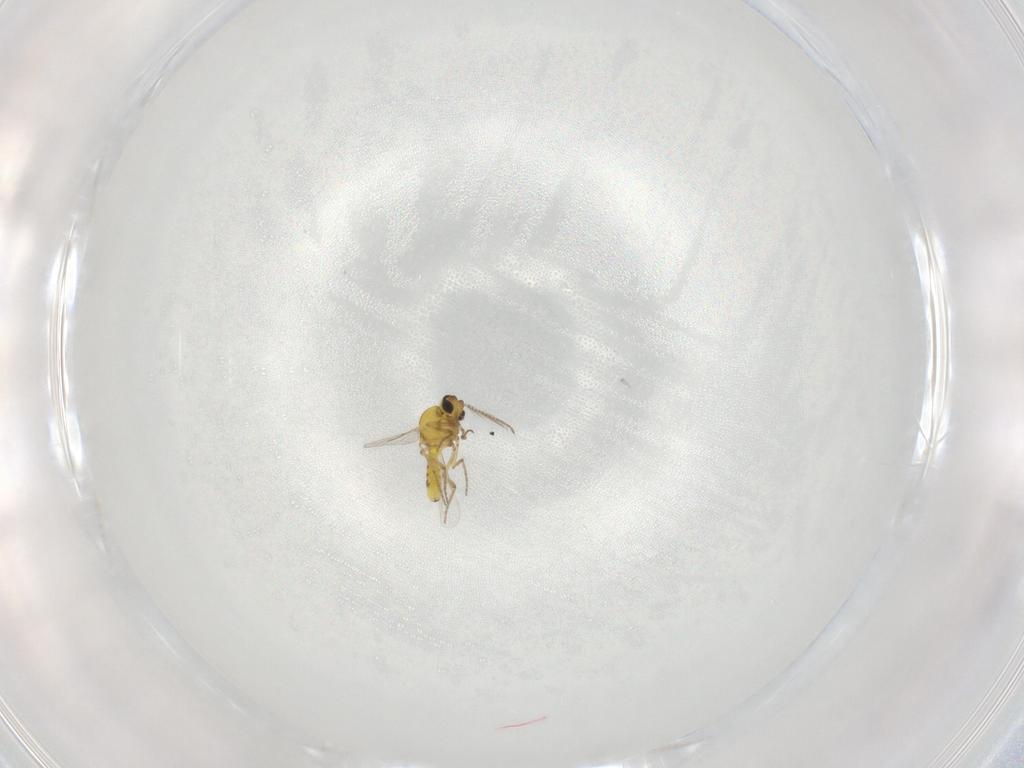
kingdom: Animalia
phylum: Arthropoda
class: Insecta
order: Diptera
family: Ceratopogonidae
